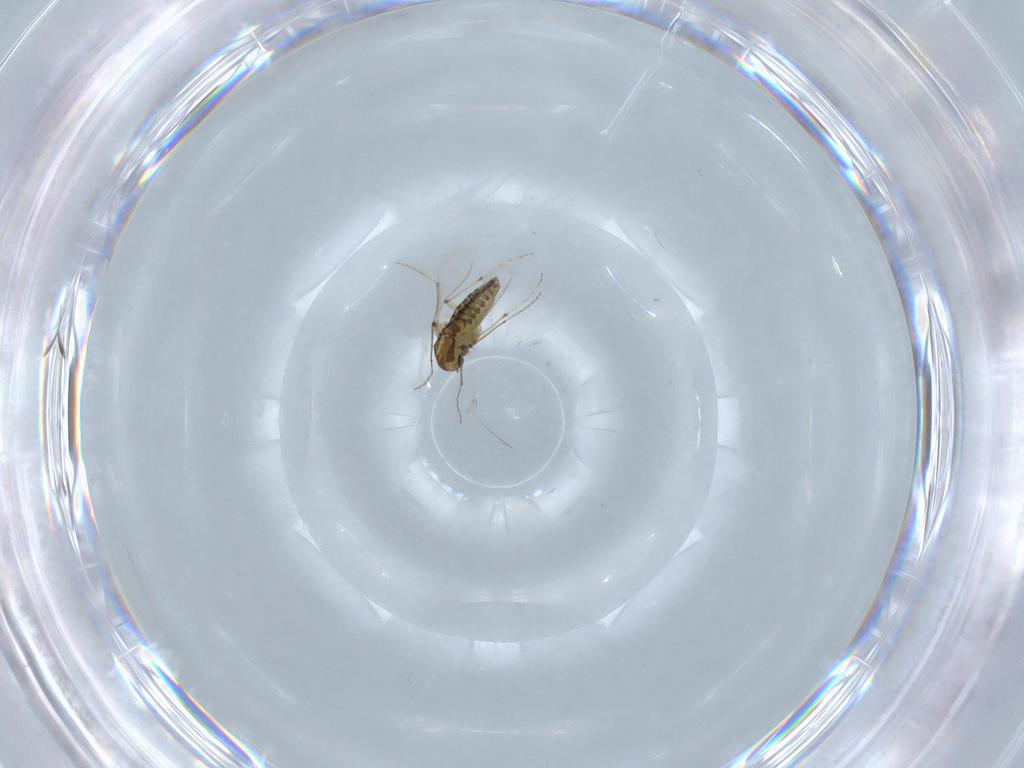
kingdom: Animalia
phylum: Arthropoda
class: Insecta
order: Diptera
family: Chironomidae
